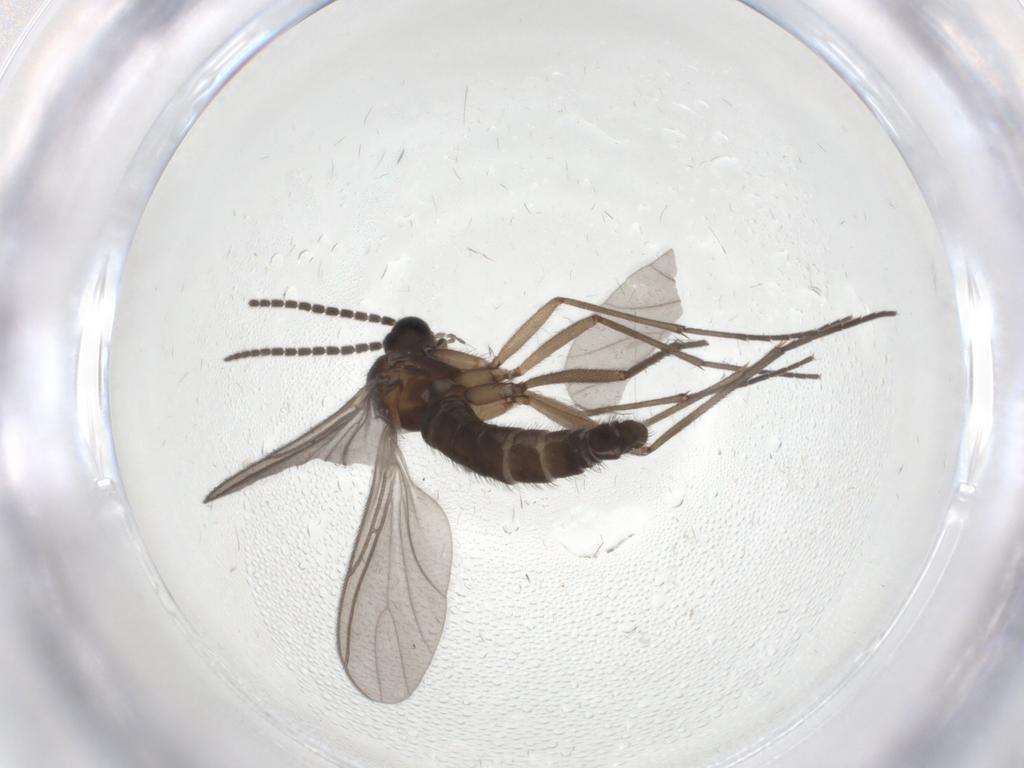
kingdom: Animalia
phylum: Arthropoda
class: Insecta
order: Diptera
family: Sciaridae
